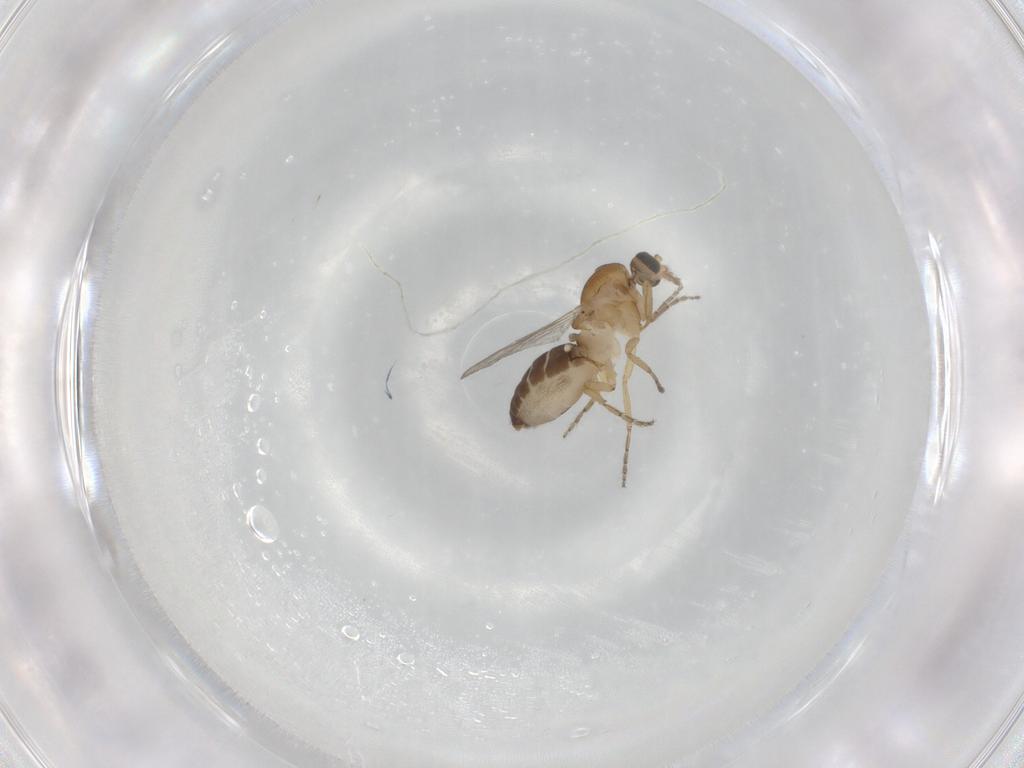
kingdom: Animalia
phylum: Arthropoda
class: Insecta
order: Diptera
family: Ceratopogonidae
